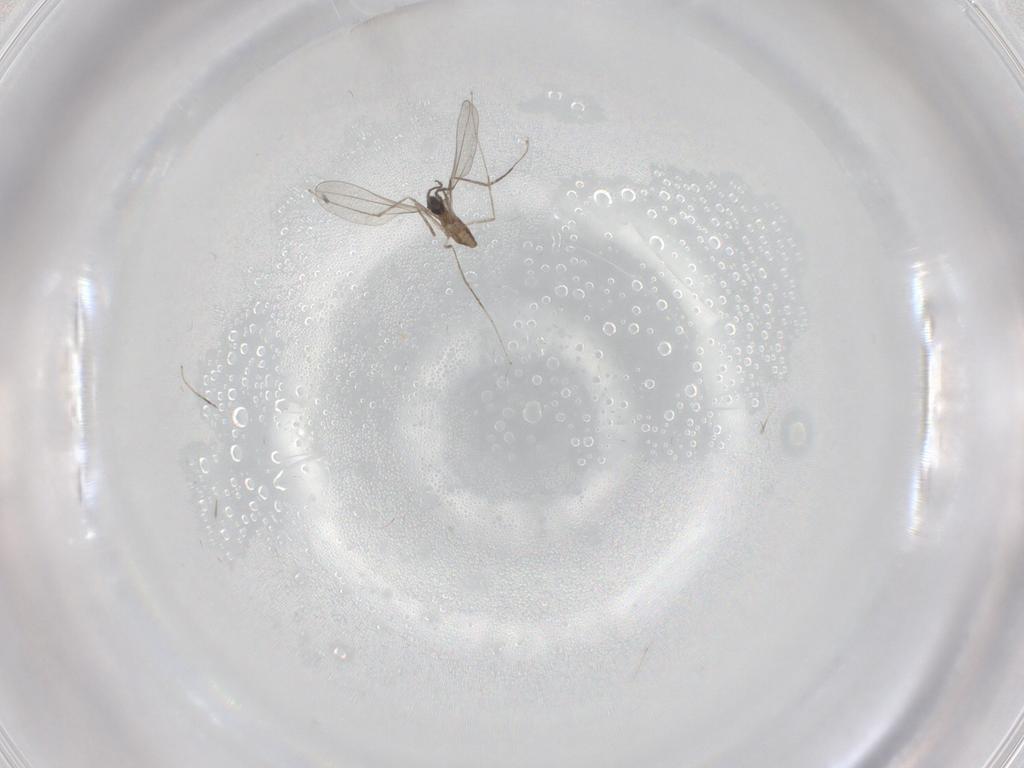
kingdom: Animalia
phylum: Arthropoda
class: Insecta
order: Diptera
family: Cecidomyiidae
